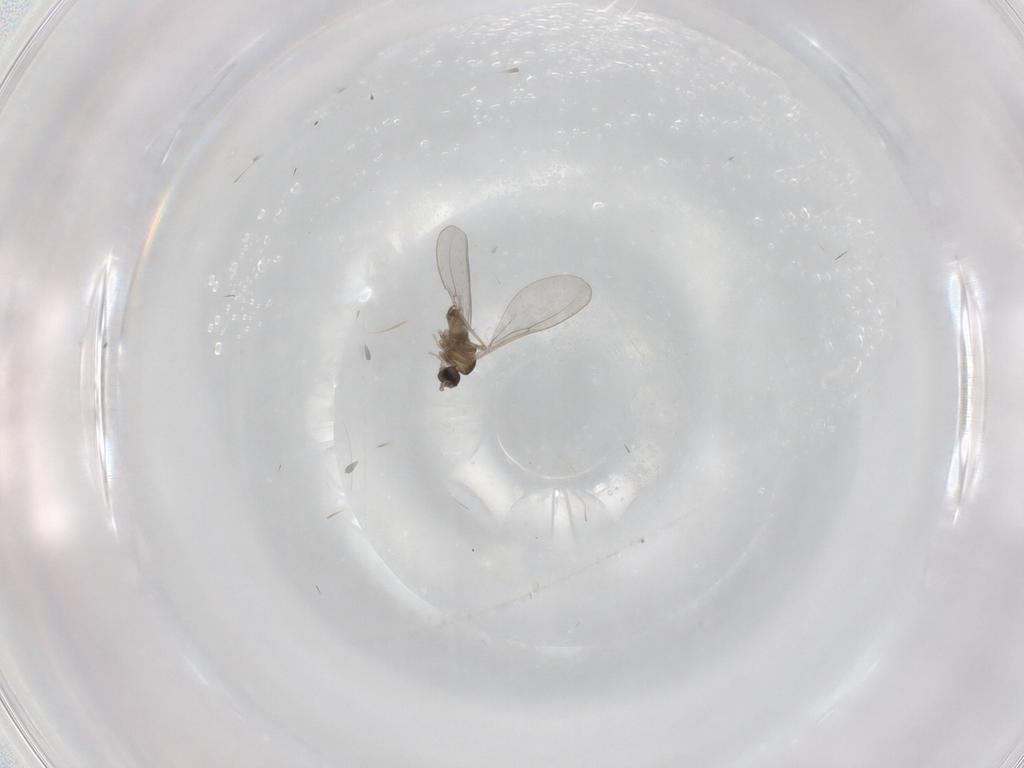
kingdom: Animalia
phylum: Arthropoda
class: Insecta
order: Diptera
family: Cecidomyiidae
